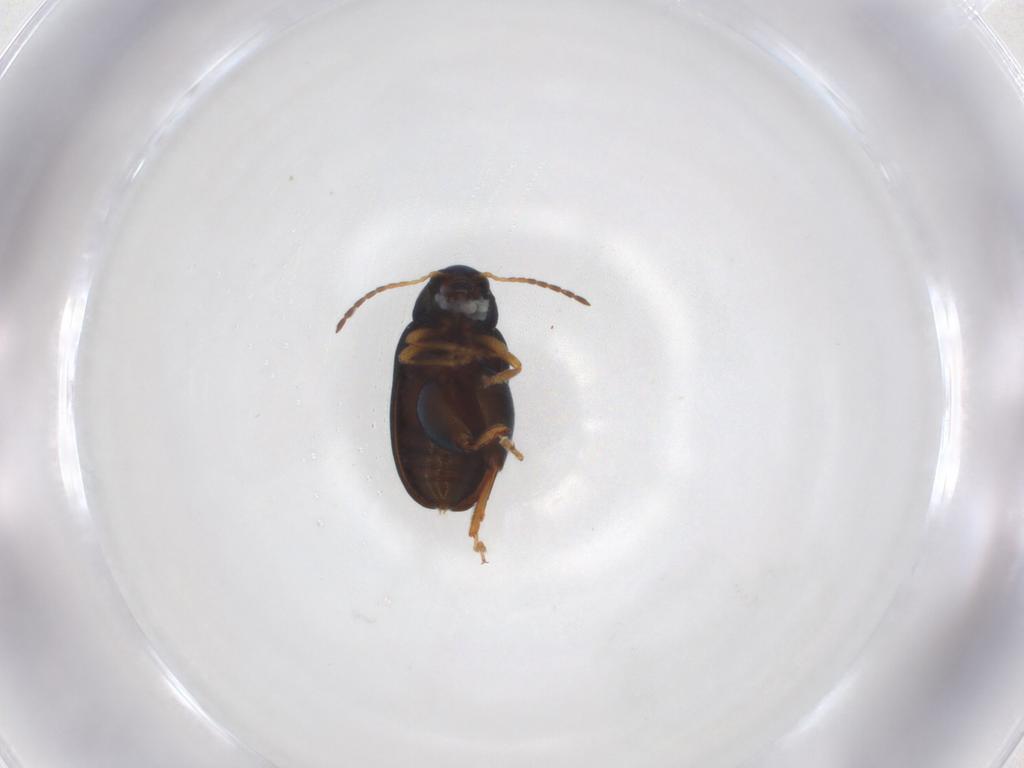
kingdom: Animalia
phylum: Arthropoda
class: Insecta
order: Coleoptera
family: Chrysomelidae
